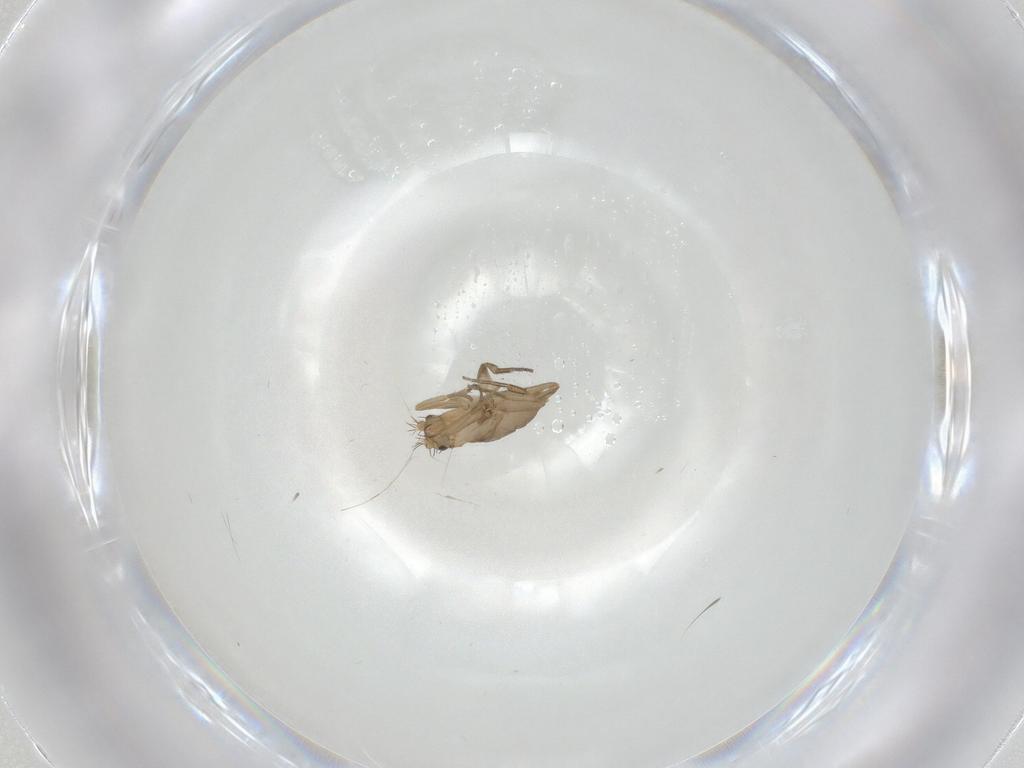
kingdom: Animalia
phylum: Arthropoda
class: Insecta
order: Diptera
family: Phoridae
